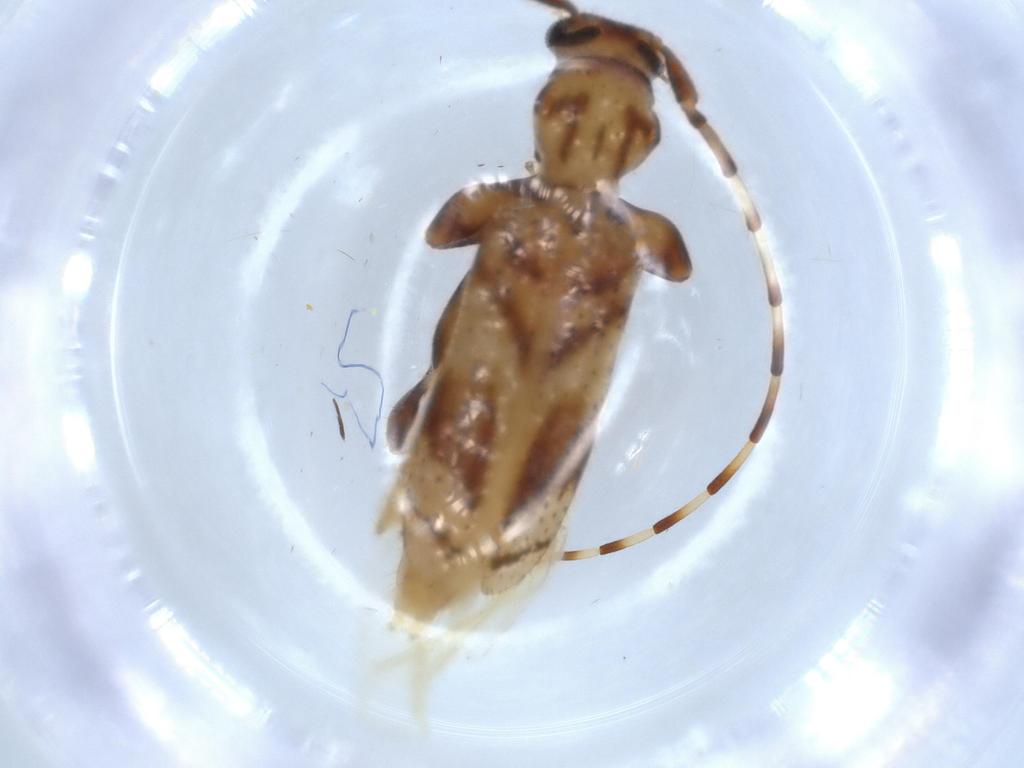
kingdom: Animalia
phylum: Arthropoda
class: Insecta
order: Coleoptera
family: Cerambycidae
